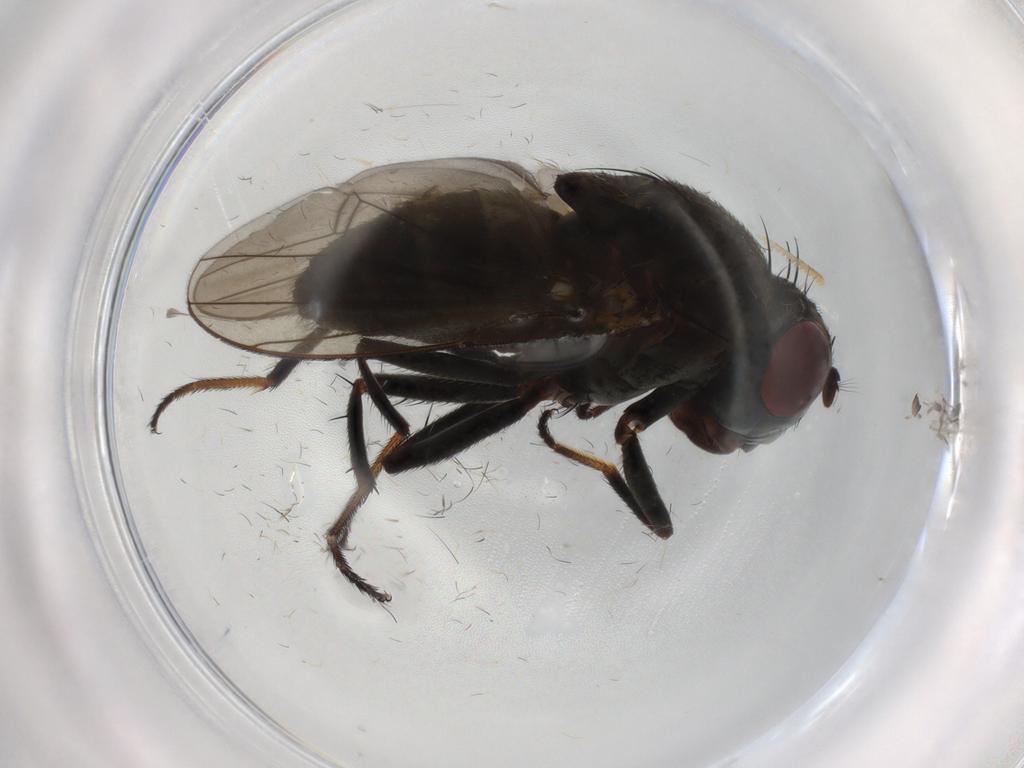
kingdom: Animalia
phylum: Arthropoda
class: Insecta
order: Diptera
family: Ephydridae
